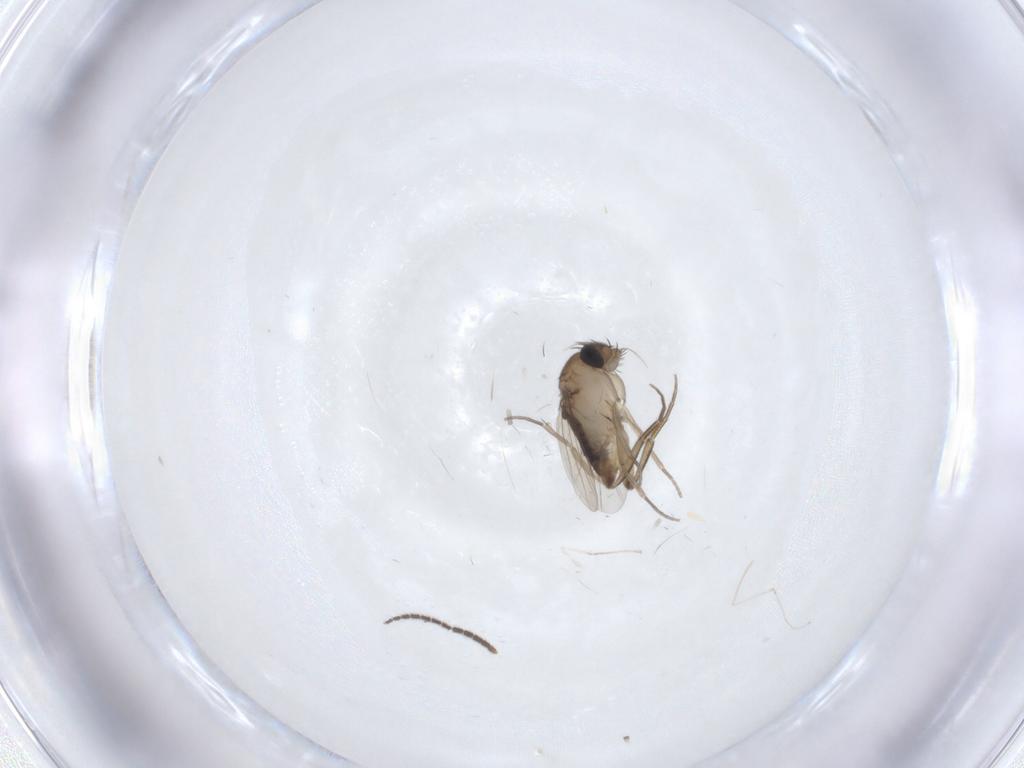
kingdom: Animalia
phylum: Arthropoda
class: Insecta
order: Diptera
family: Phoridae
